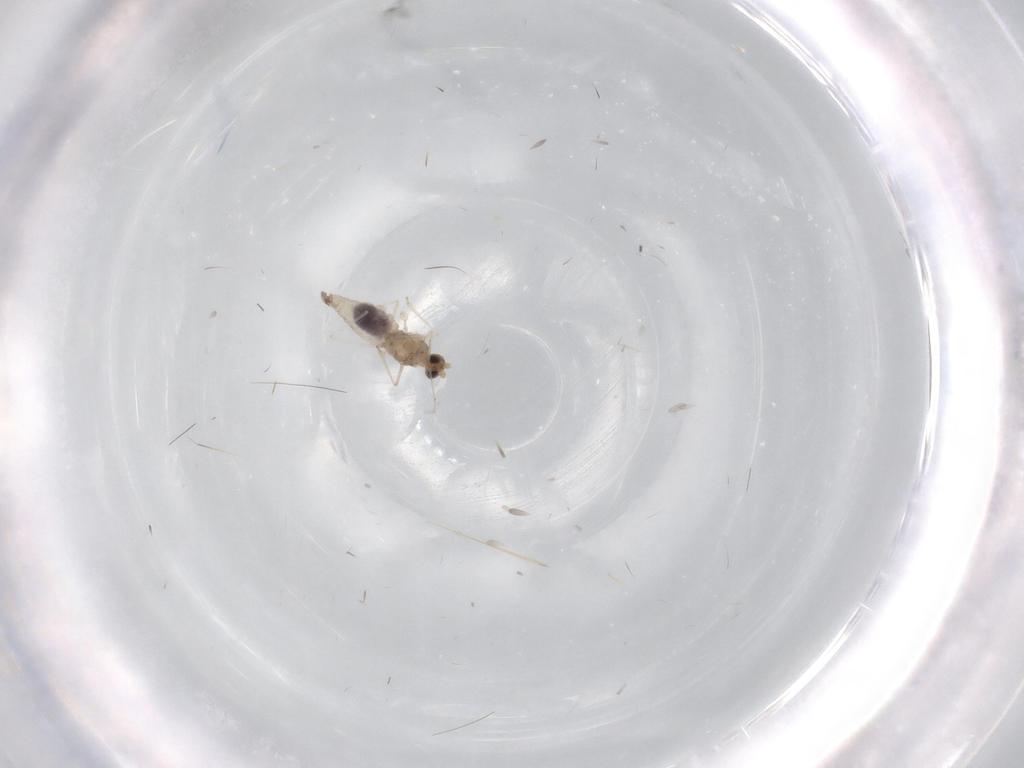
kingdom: Animalia
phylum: Arthropoda
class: Insecta
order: Diptera
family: Cecidomyiidae
